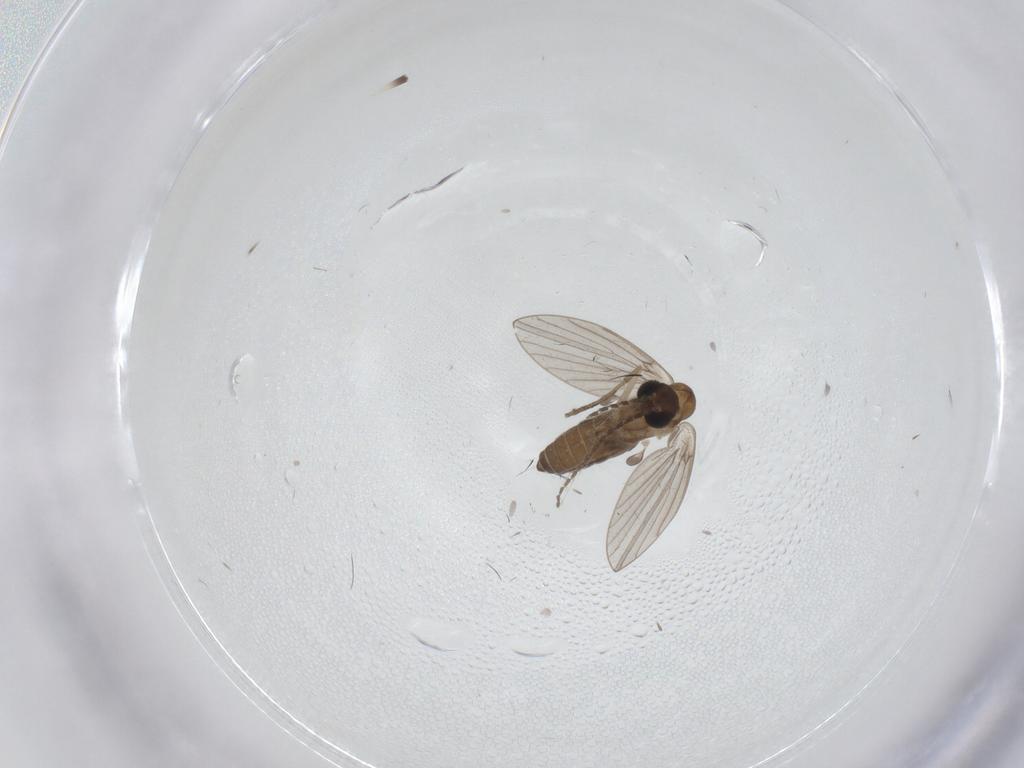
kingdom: Animalia
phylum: Arthropoda
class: Insecta
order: Diptera
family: Cecidomyiidae
